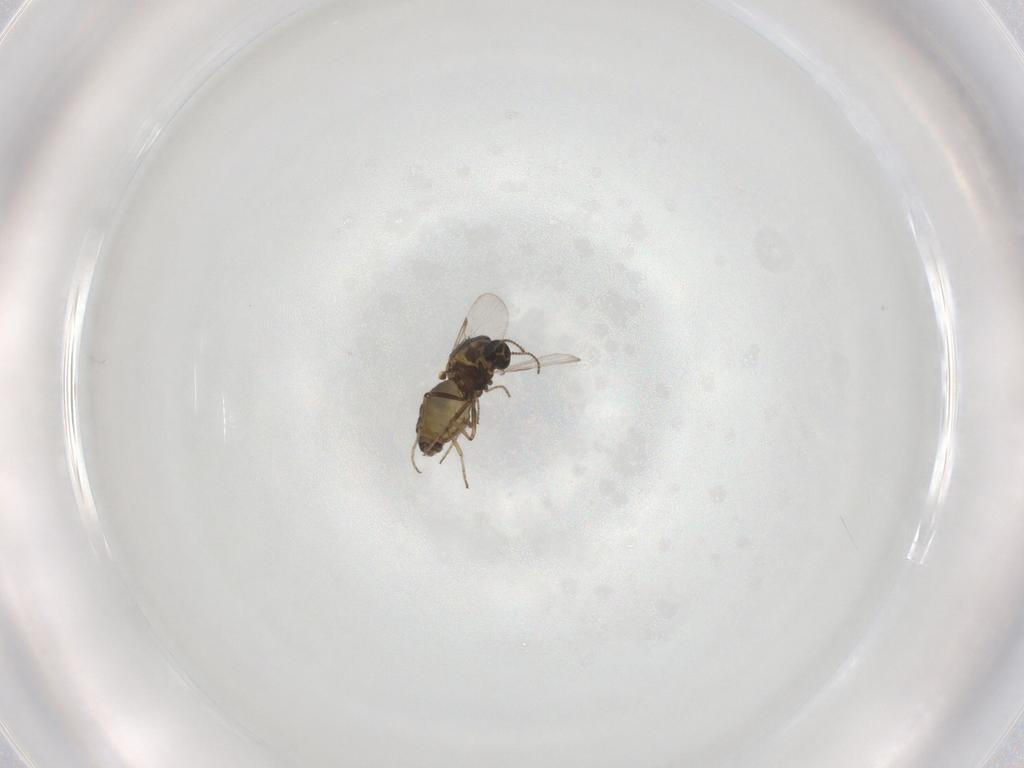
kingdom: Animalia
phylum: Arthropoda
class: Insecta
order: Diptera
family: Ceratopogonidae
